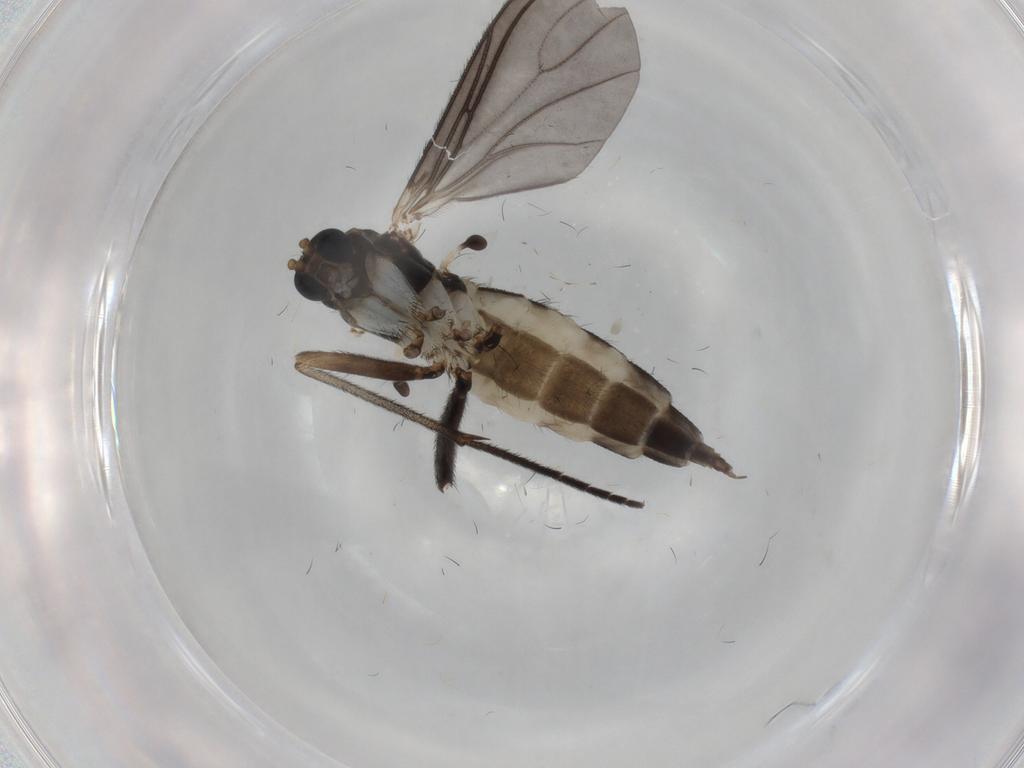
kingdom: Animalia
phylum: Arthropoda
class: Insecta
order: Diptera
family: Sciaridae
